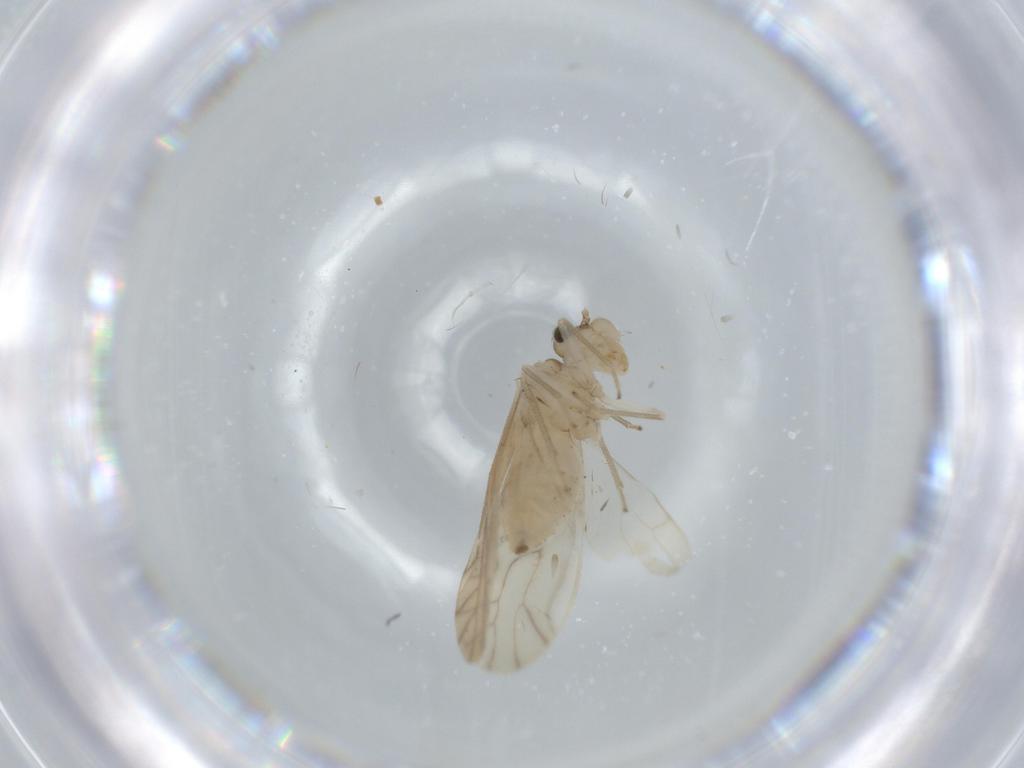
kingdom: Animalia
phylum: Arthropoda
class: Insecta
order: Psocodea
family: Caeciliusidae
